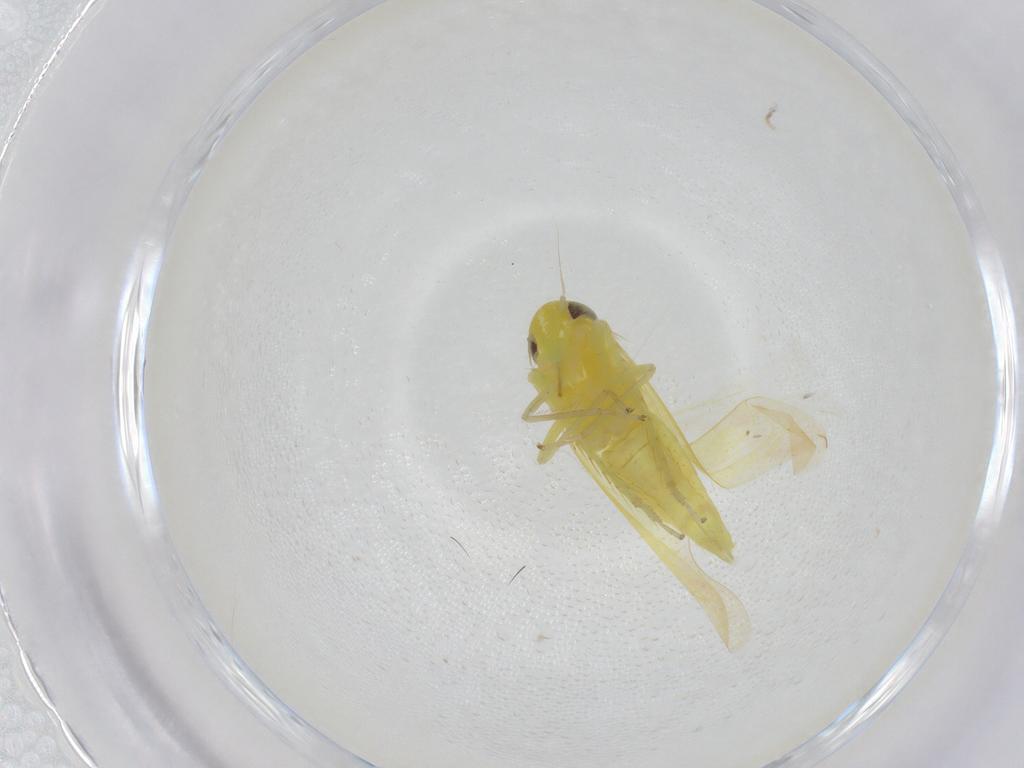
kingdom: Animalia
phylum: Arthropoda
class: Insecta
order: Hemiptera
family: Cicadellidae
